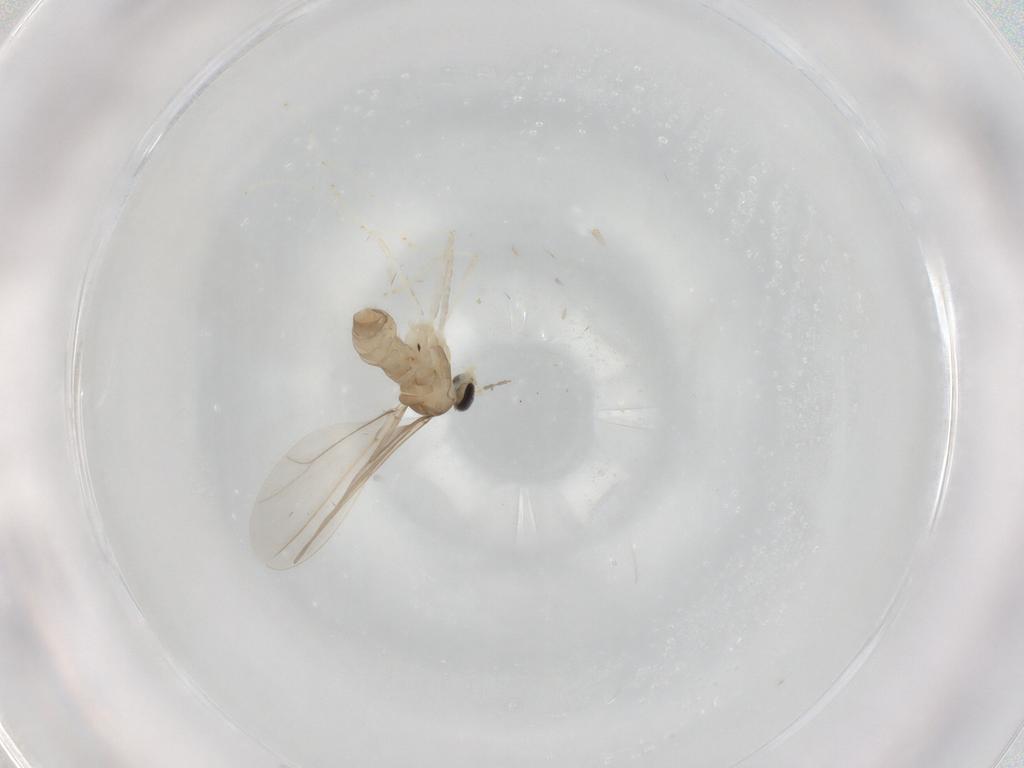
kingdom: Animalia
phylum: Arthropoda
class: Insecta
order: Diptera
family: Cecidomyiidae
